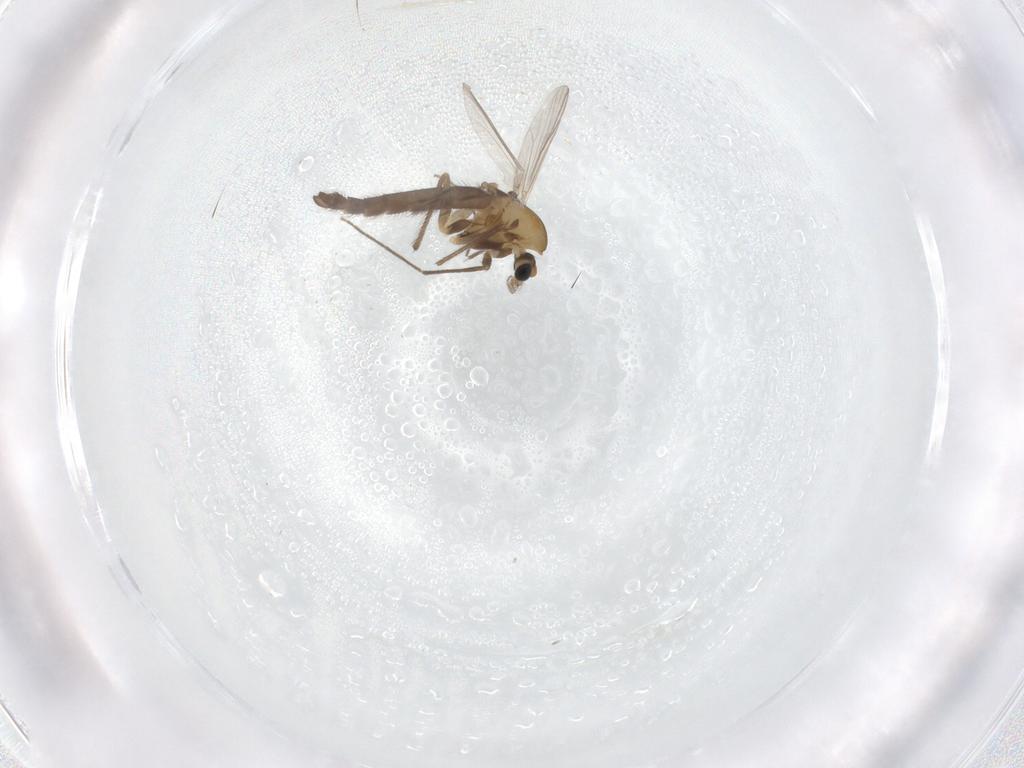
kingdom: Animalia
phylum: Arthropoda
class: Insecta
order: Diptera
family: Chironomidae
